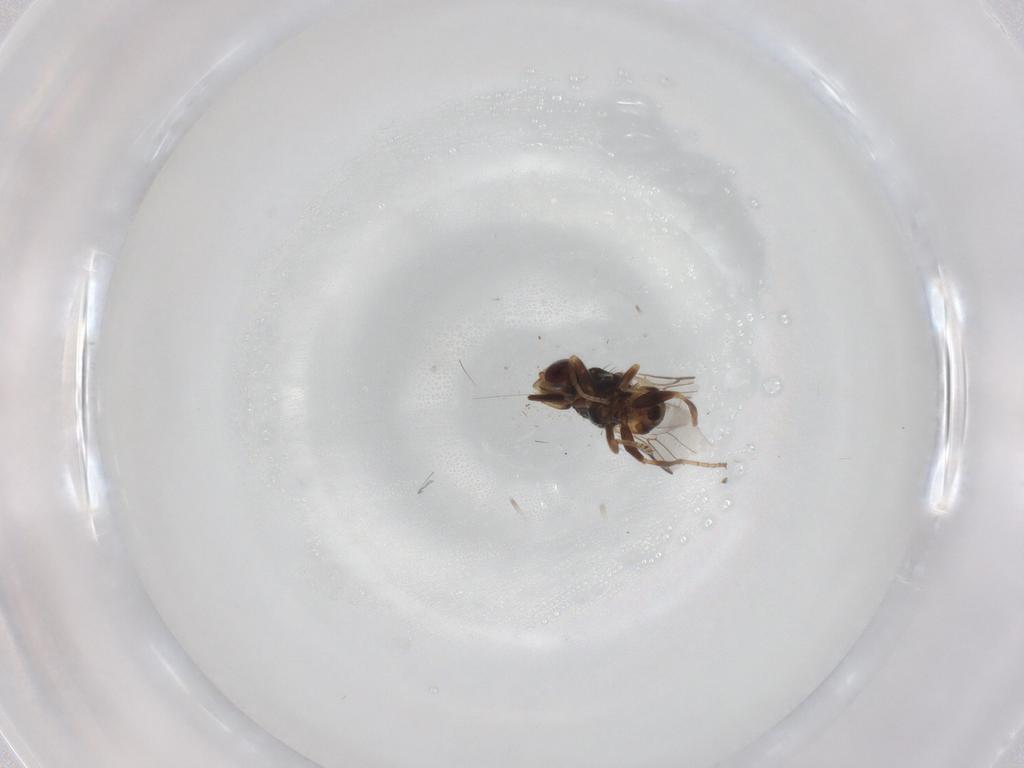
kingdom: Animalia
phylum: Arthropoda
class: Insecta
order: Diptera
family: Chloropidae
